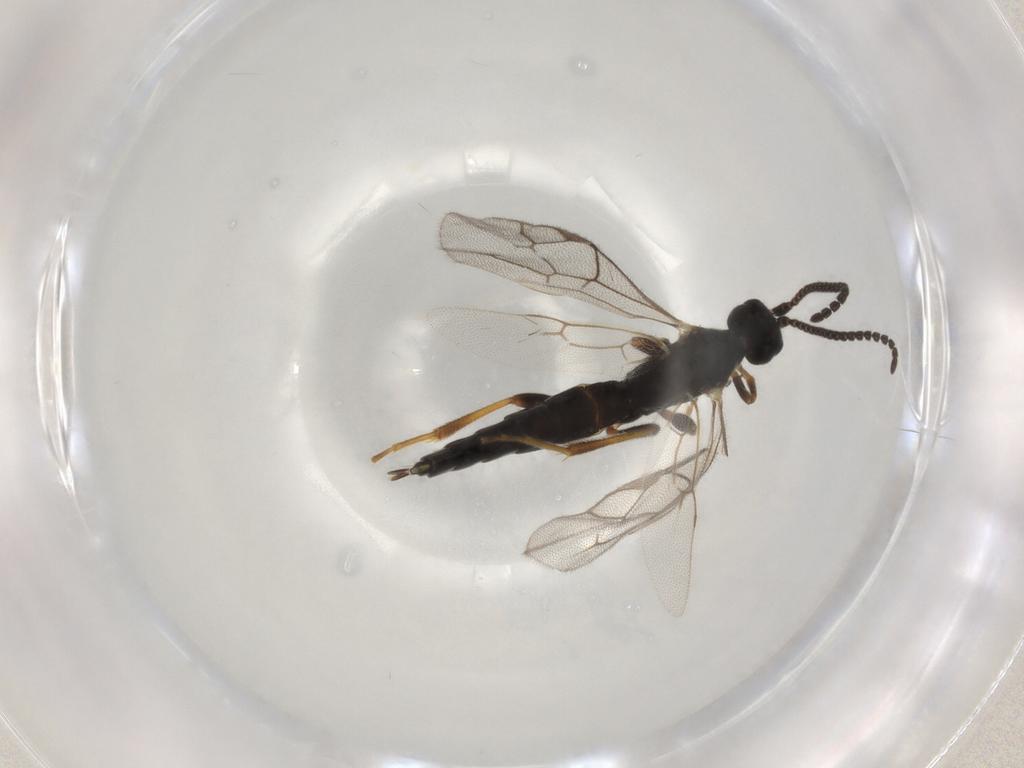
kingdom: Animalia
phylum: Arthropoda
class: Insecta
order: Hymenoptera
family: Ichneumonidae
